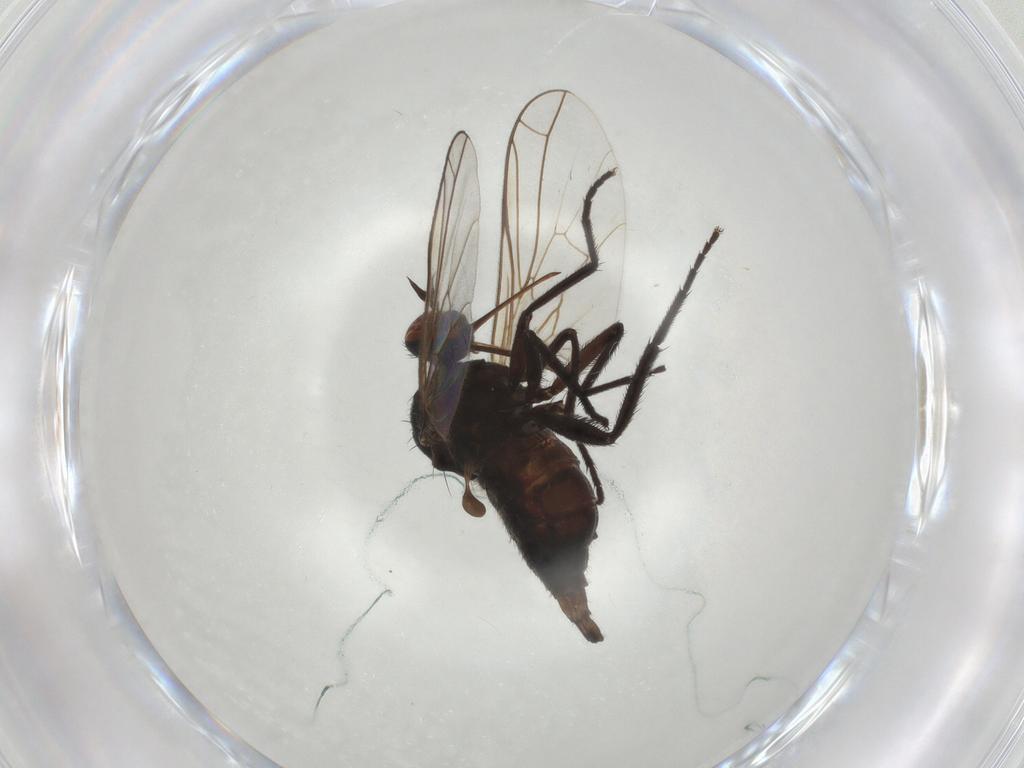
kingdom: Animalia
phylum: Arthropoda
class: Insecta
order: Diptera
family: Empididae
